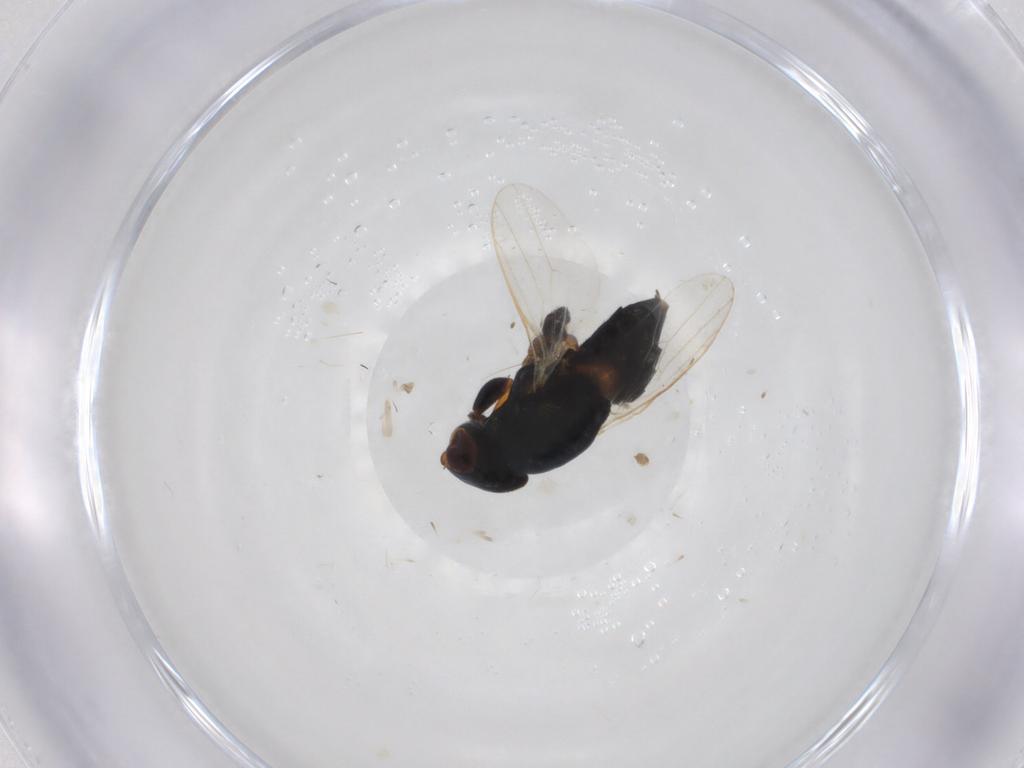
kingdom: Animalia
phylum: Arthropoda
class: Insecta
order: Diptera
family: Chloropidae
